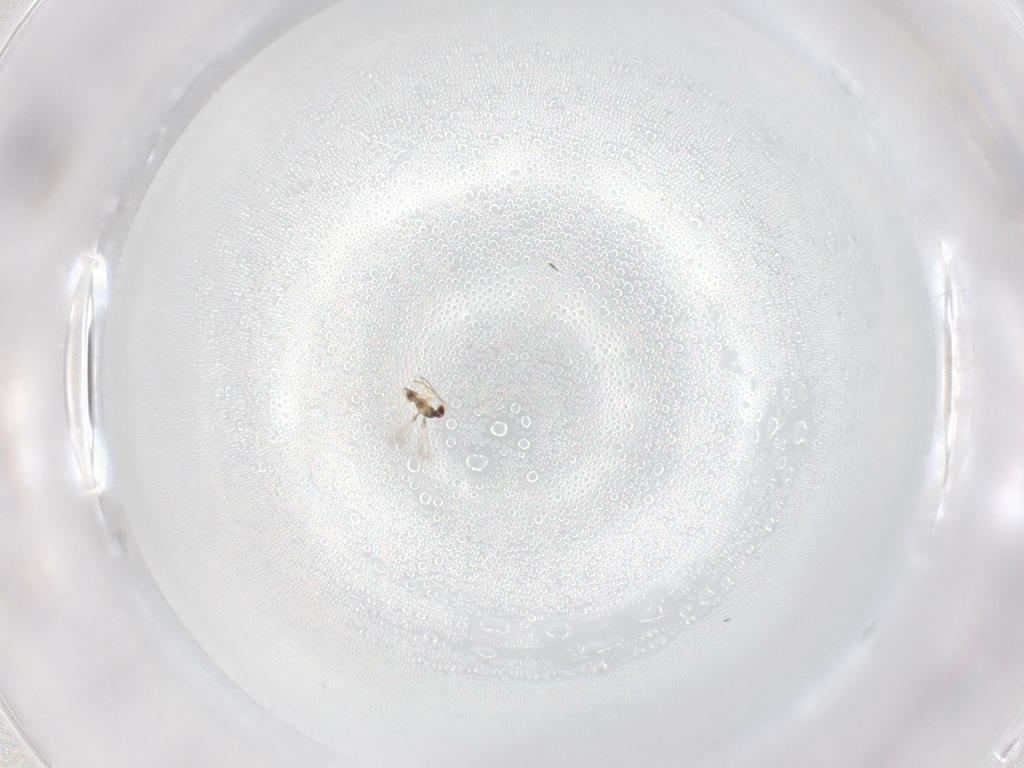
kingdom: Animalia
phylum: Arthropoda
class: Insecta
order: Hymenoptera
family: Mymaridae
